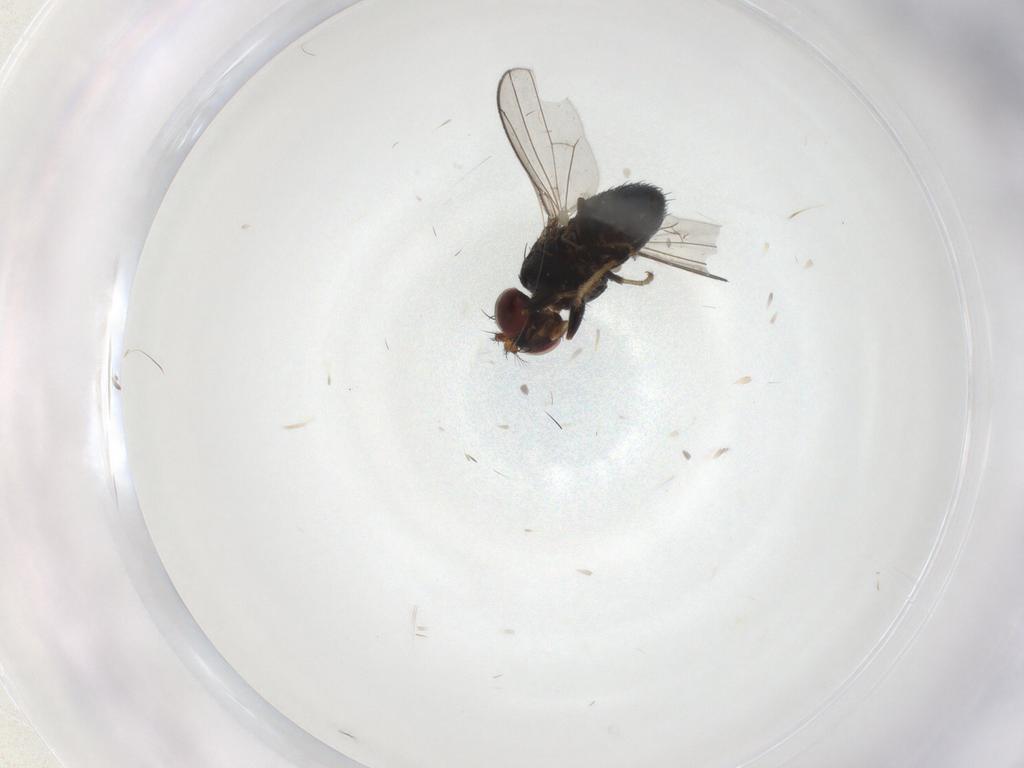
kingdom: Animalia
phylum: Arthropoda
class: Insecta
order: Diptera
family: Ephydridae
